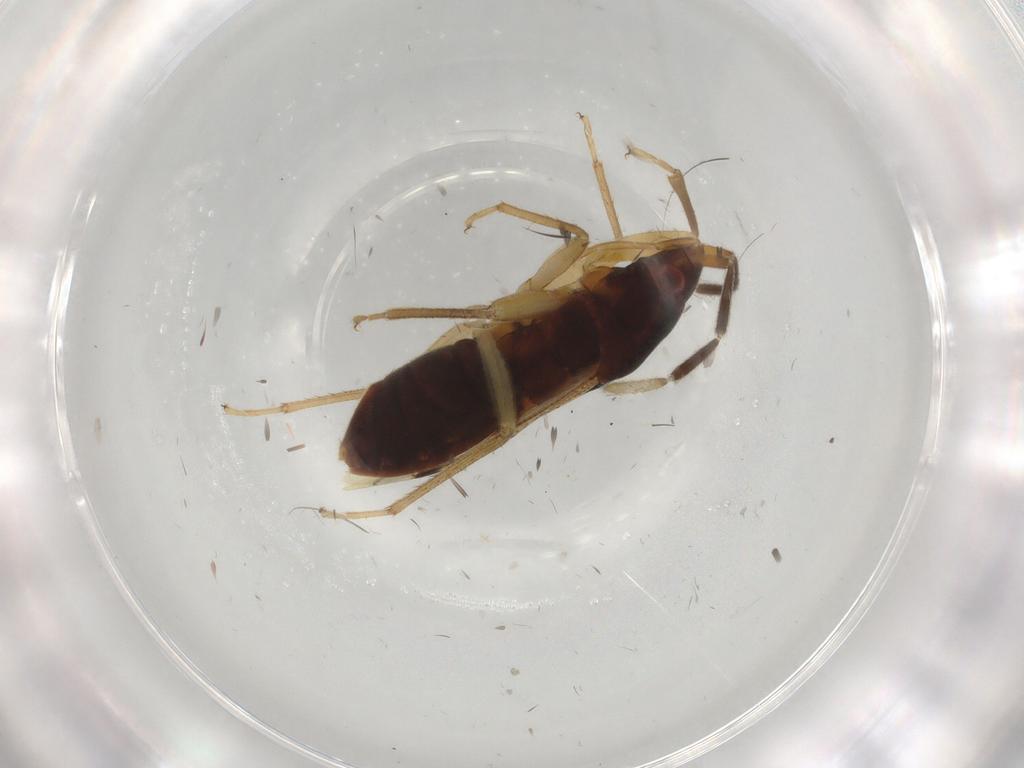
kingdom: Animalia
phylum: Arthropoda
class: Insecta
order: Hemiptera
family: Rhyparochromidae
